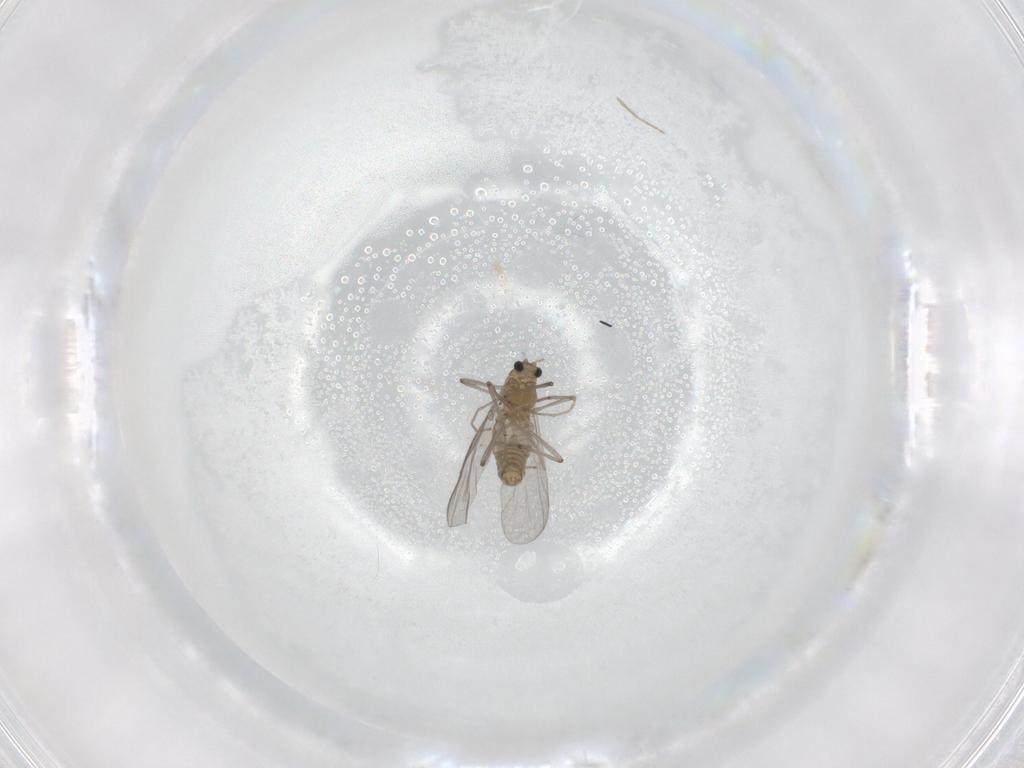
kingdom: Animalia
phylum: Arthropoda
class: Insecta
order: Diptera
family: Chironomidae
